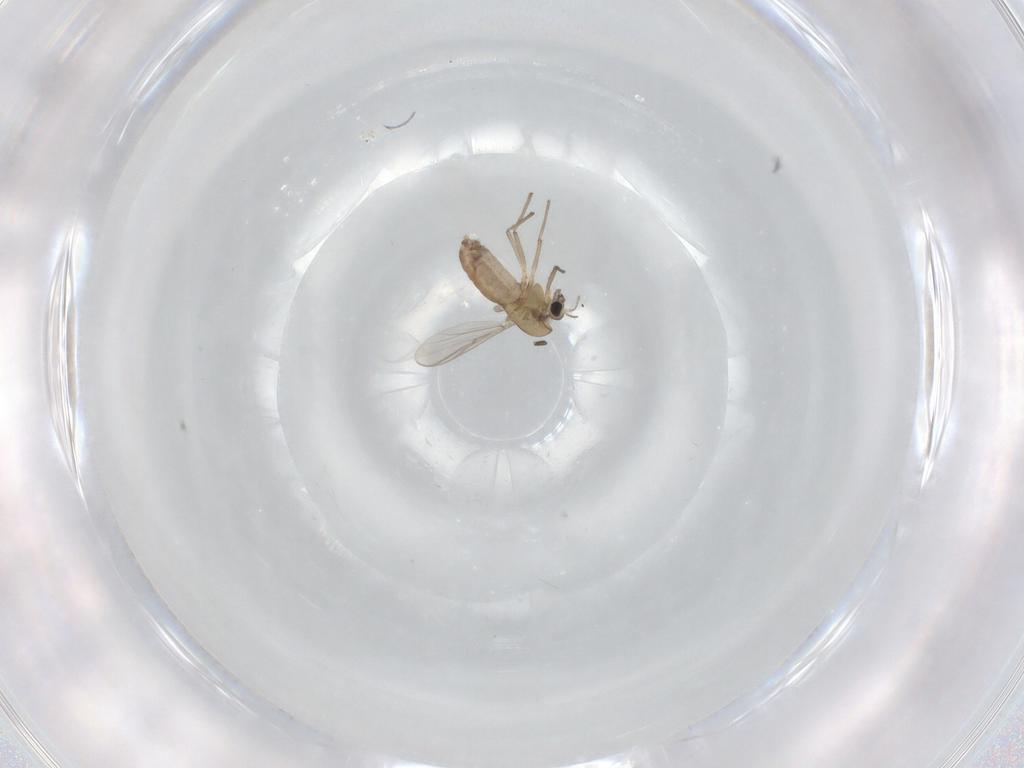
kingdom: Animalia
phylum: Arthropoda
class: Insecta
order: Diptera
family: Chironomidae
